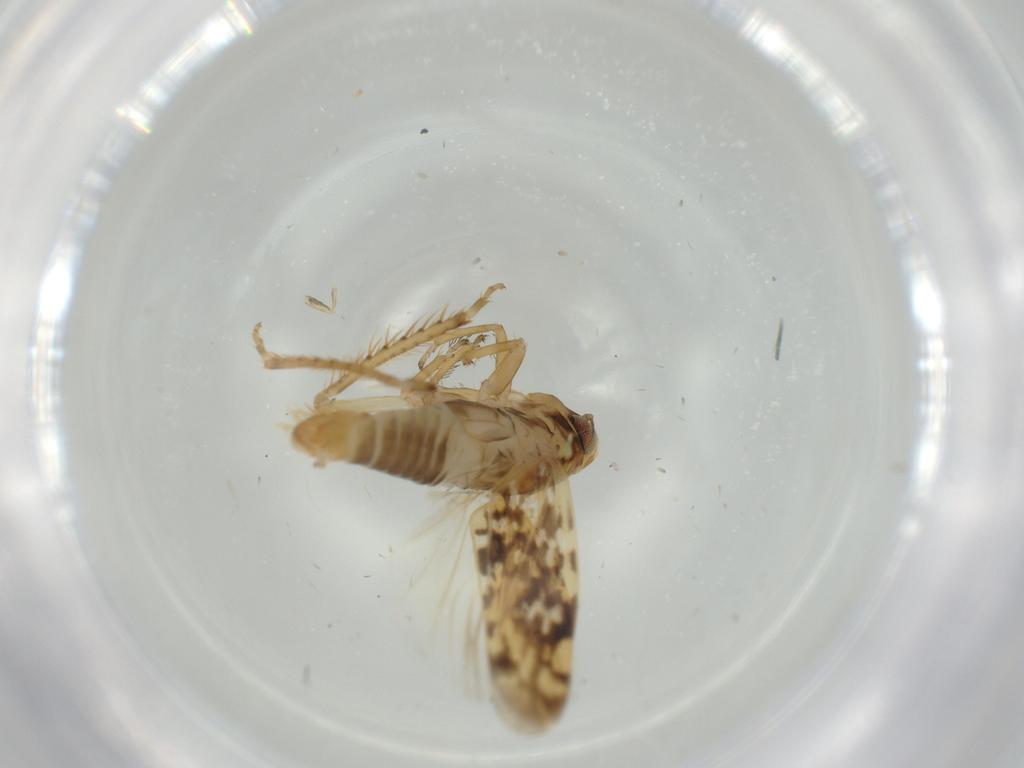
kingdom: Animalia
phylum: Arthropoda
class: Insecta
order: Hemiptera
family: Cicadellidae
